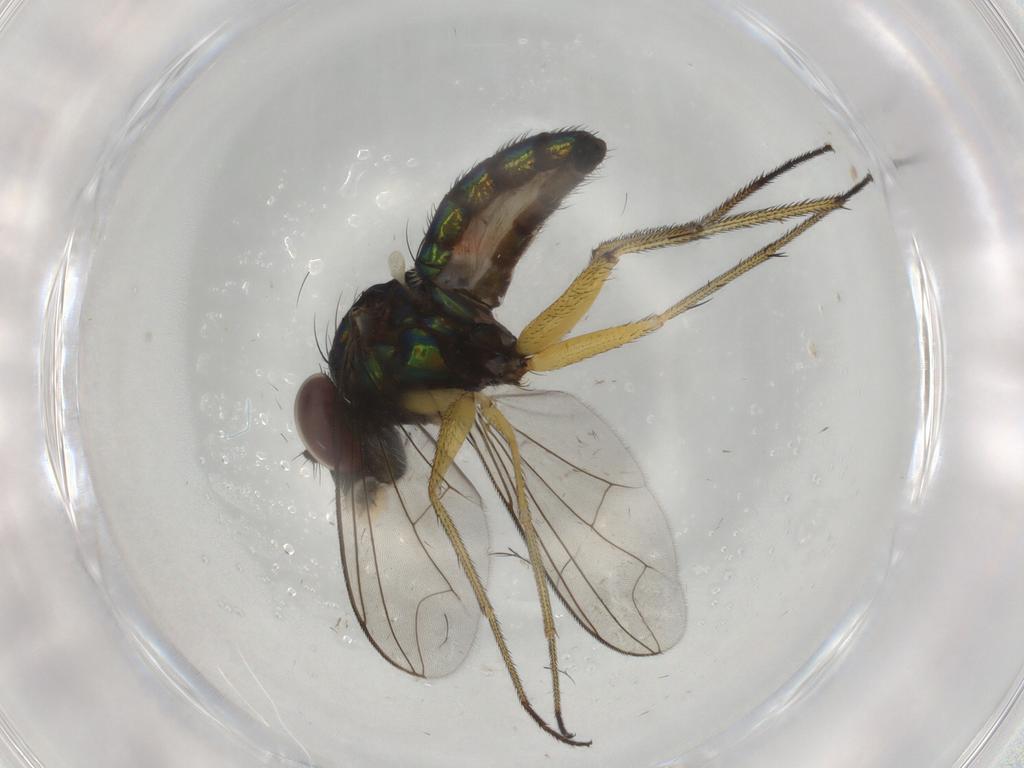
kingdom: Animalia
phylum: Arthropoda
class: Insecta
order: Diptera
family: Dolichopodidae
